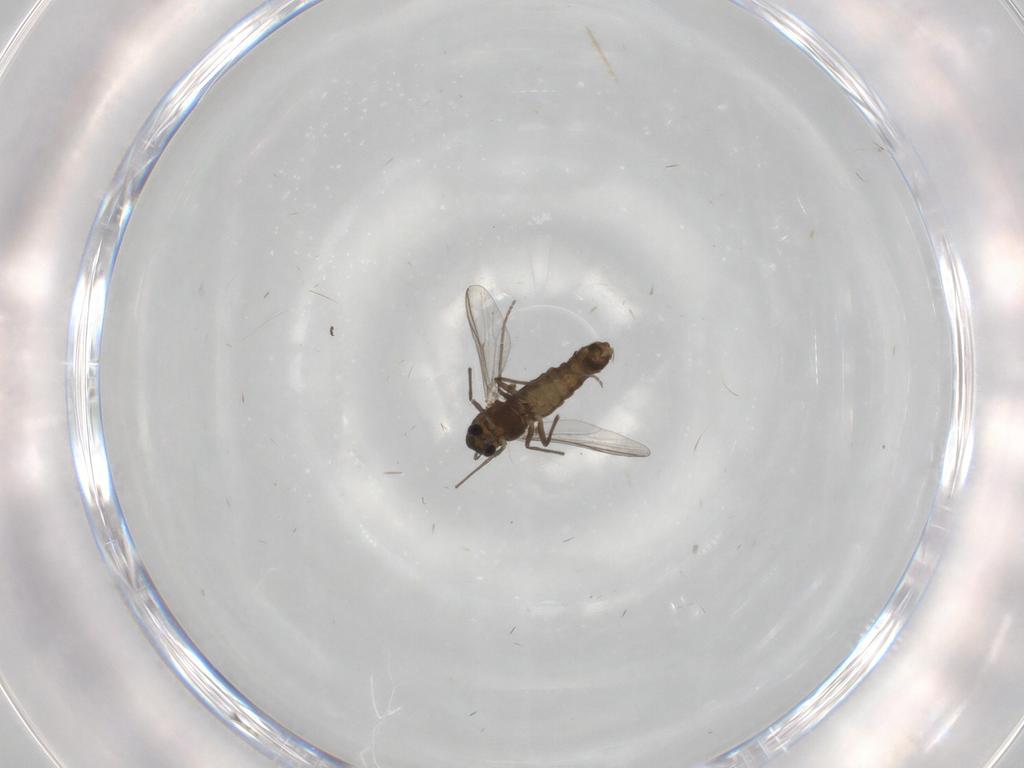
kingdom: Animalia
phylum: Arthropoda
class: Insecta
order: Diptera
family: Chironomidae
